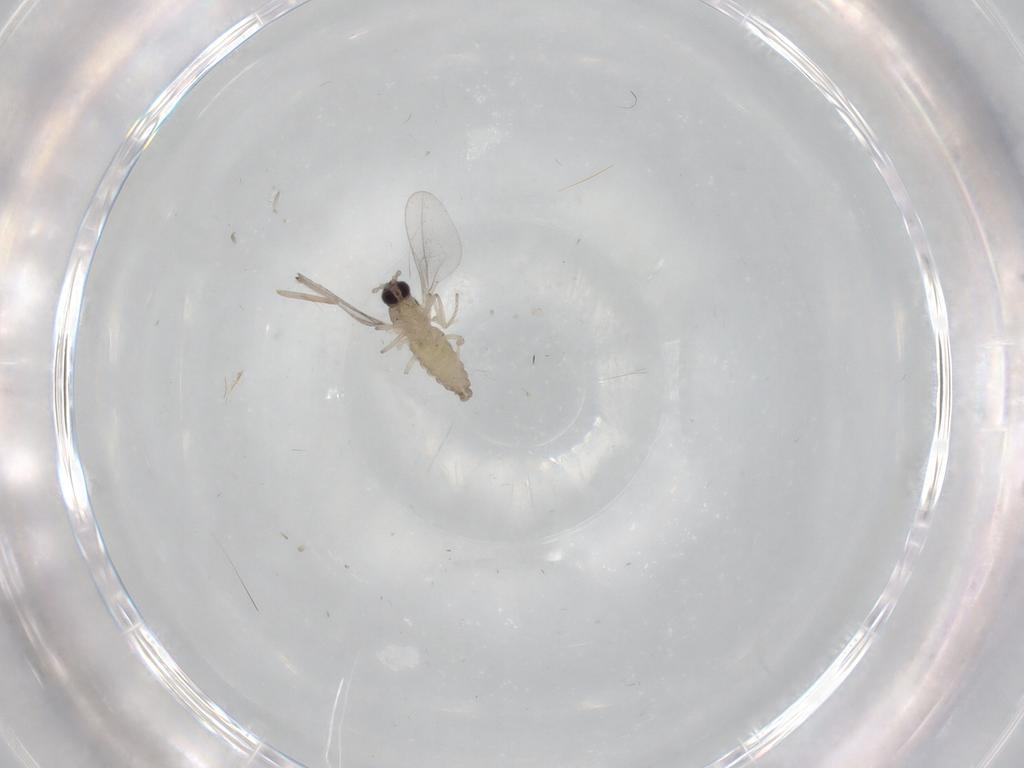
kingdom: Animalia
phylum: Arthropoda
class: Insecta
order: Diptera
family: Cecidomyiidae
